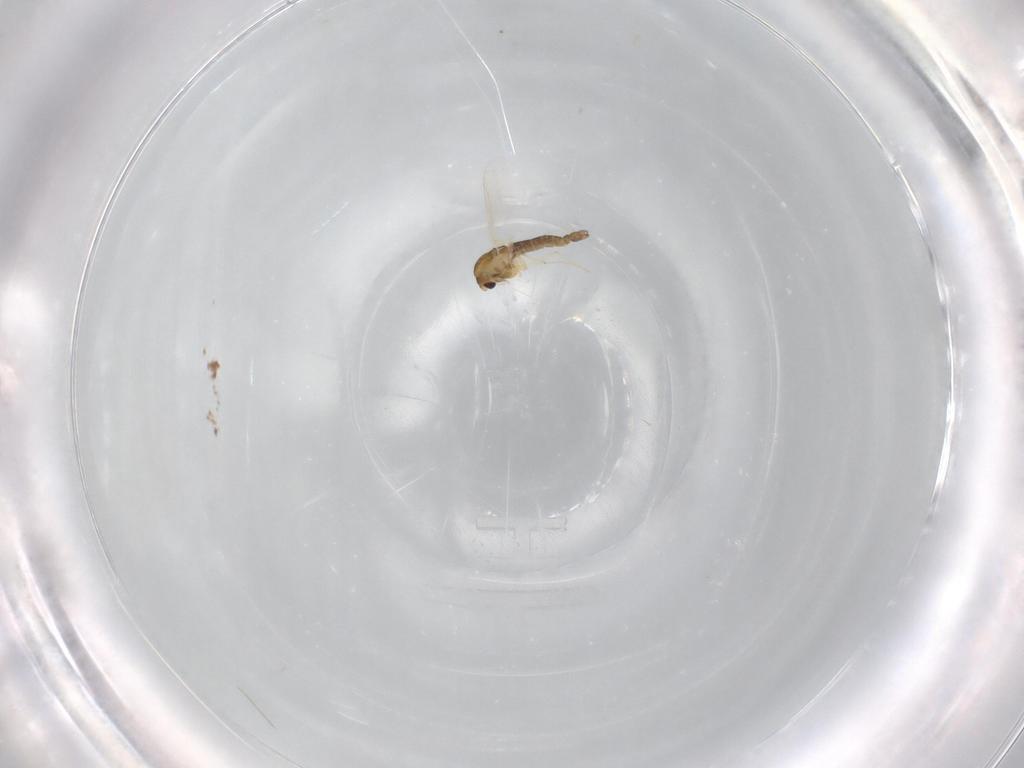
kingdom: Animalia
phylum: Arthropoda
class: Insecta
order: Diptera
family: Chironomidae
